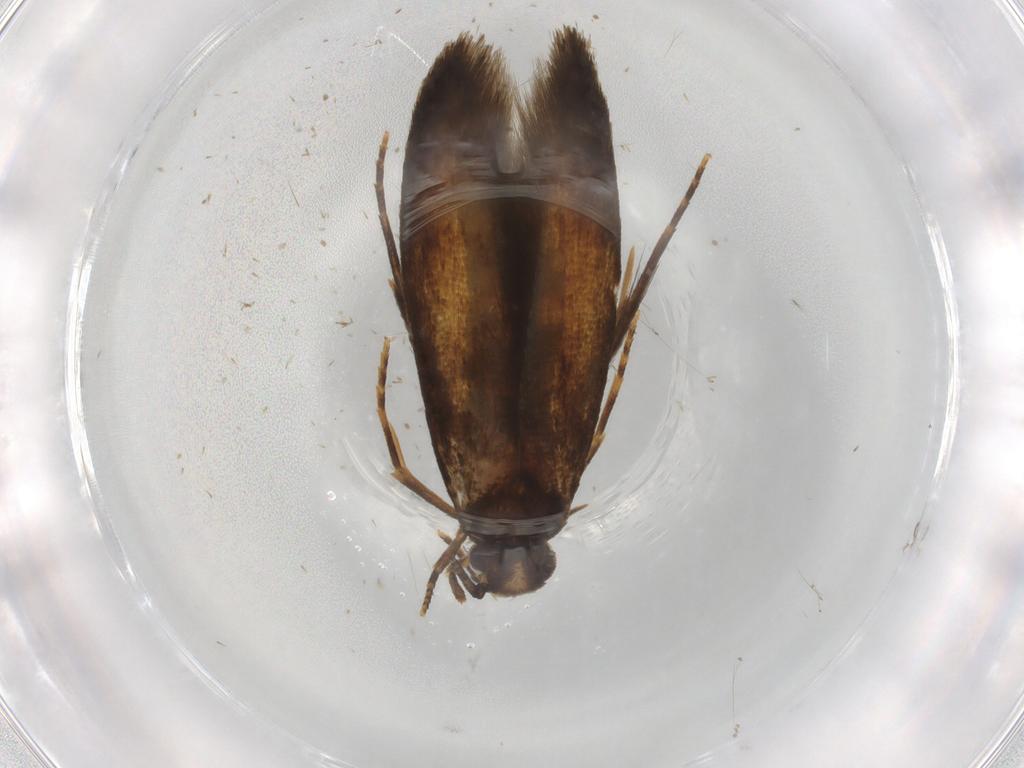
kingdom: Animalia
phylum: Arthropoda
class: Insecta
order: Lepidoptera
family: Tineidae
